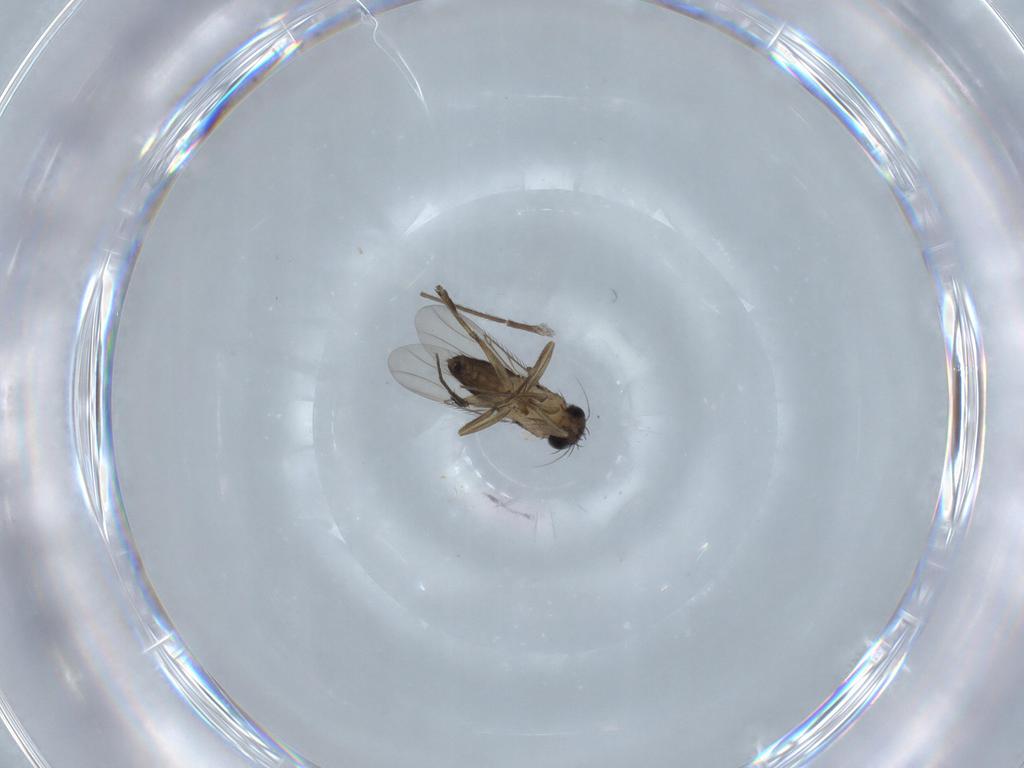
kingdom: Animalia
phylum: Arthropoda
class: Insecta
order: Diptera
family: Phoridae
